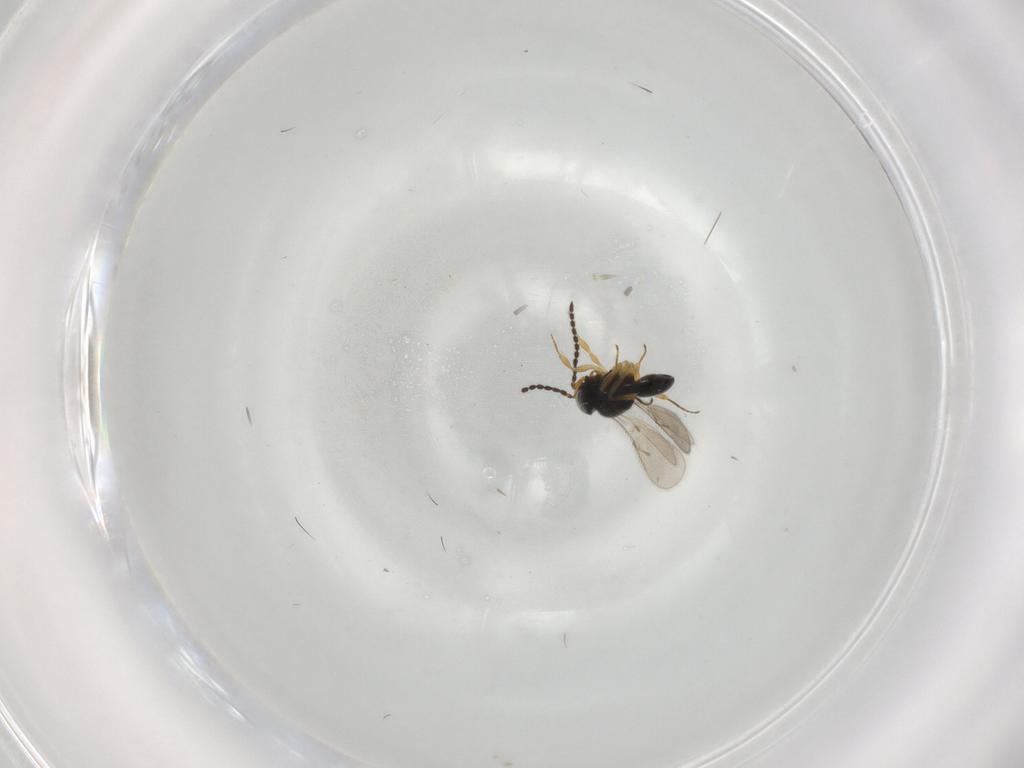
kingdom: Animalia
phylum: Arthropoda
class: Insecta
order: Hymenoptera
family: Scelionidae
